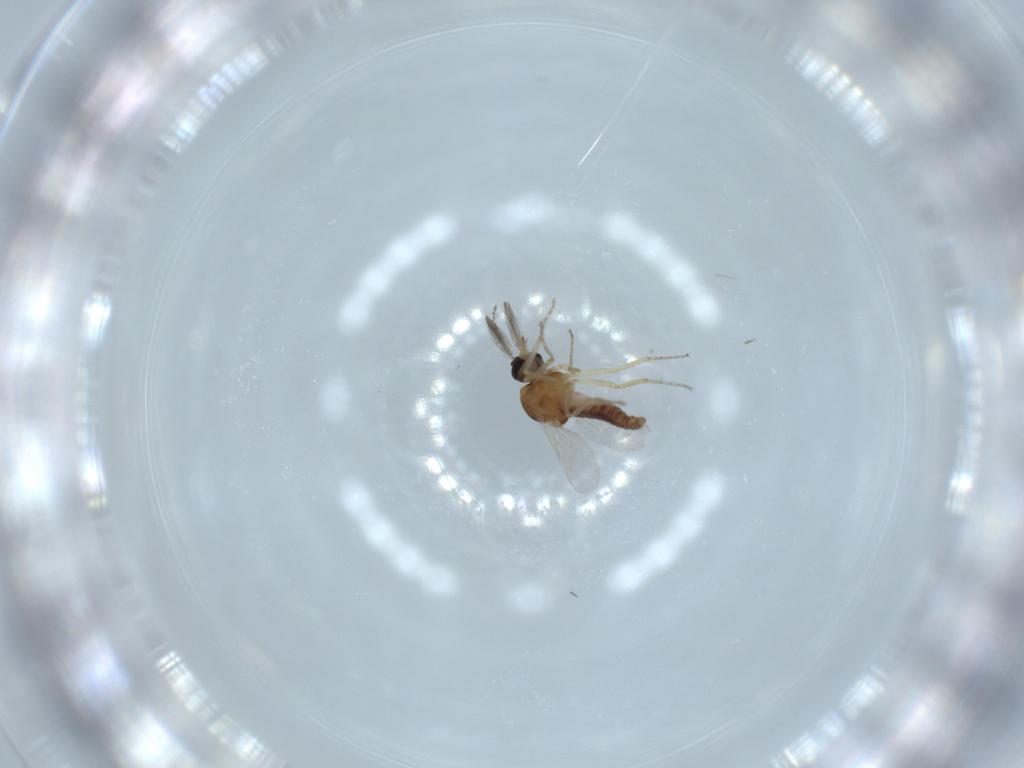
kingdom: Animalia
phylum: Arthropoda
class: Insecta
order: Diptera
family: Ceratopogonidae
